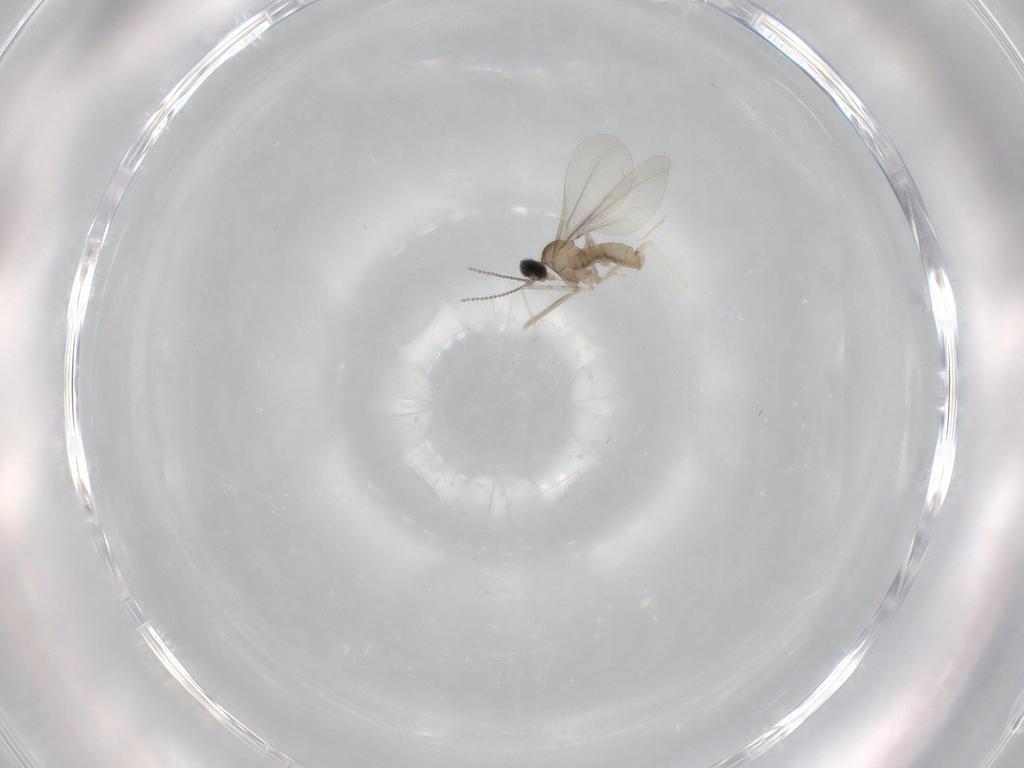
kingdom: Animalia
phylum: Arthropoda
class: Insecta
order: Diptera
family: Cecidomyiidae
